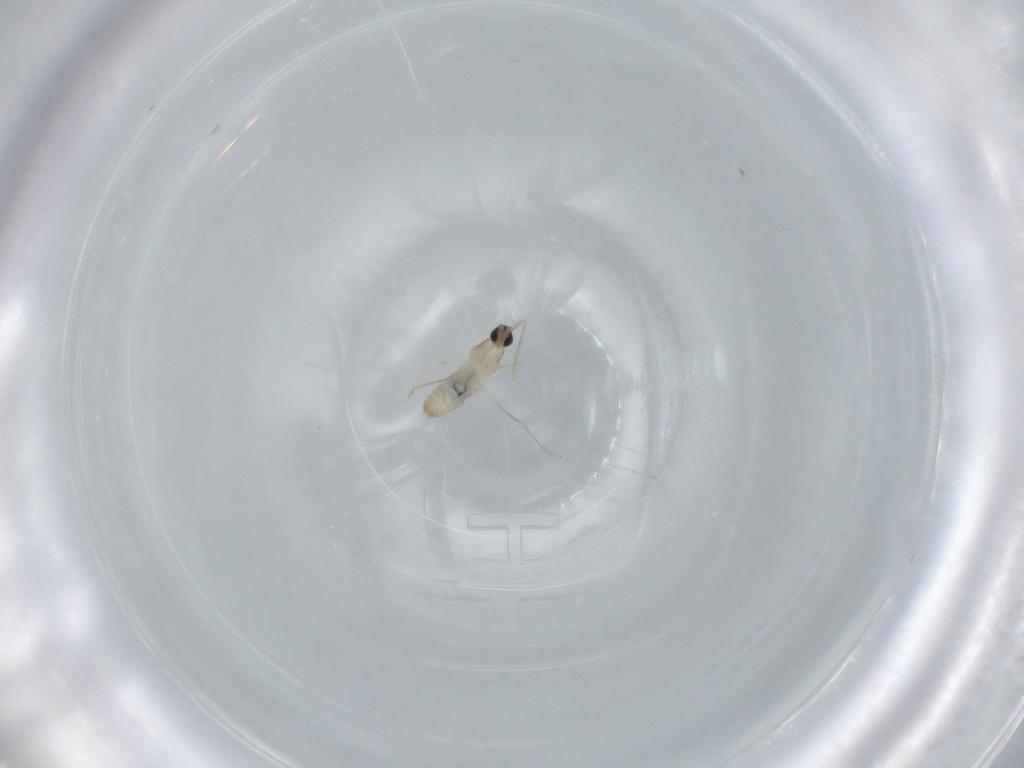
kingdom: Animalia
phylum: Arthropoda
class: Insecta
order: Diptera
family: Cecidomyiidae
